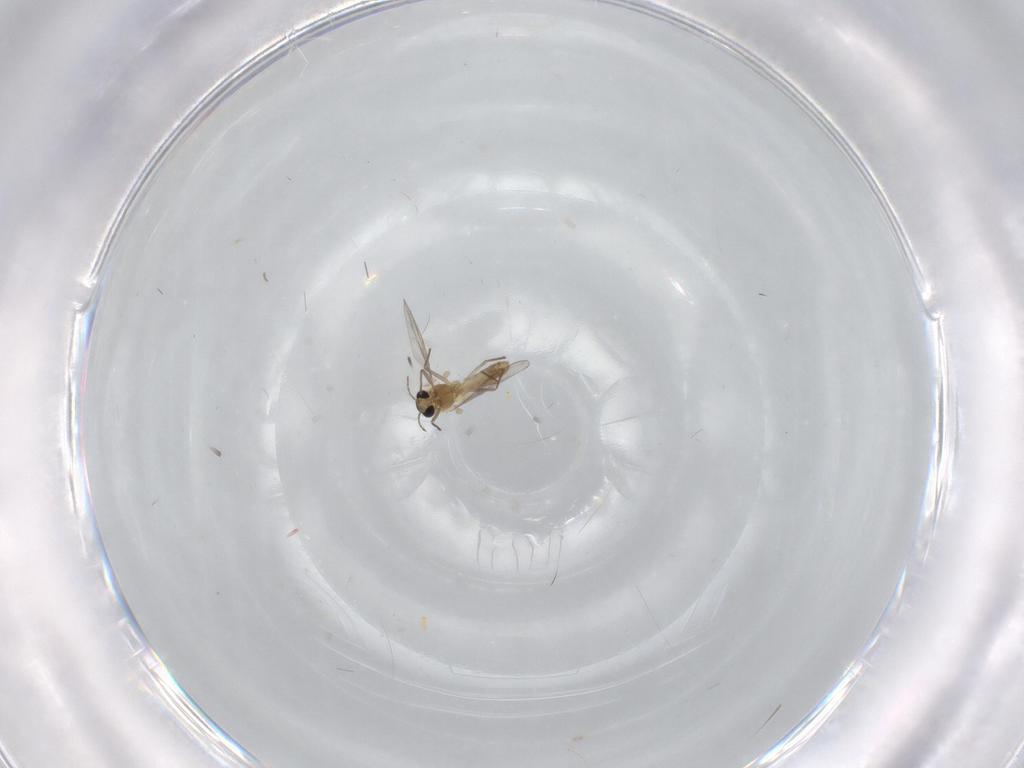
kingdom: Animalia
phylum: Arthropoda
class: Insecta
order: Diptera
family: Chironomidae
